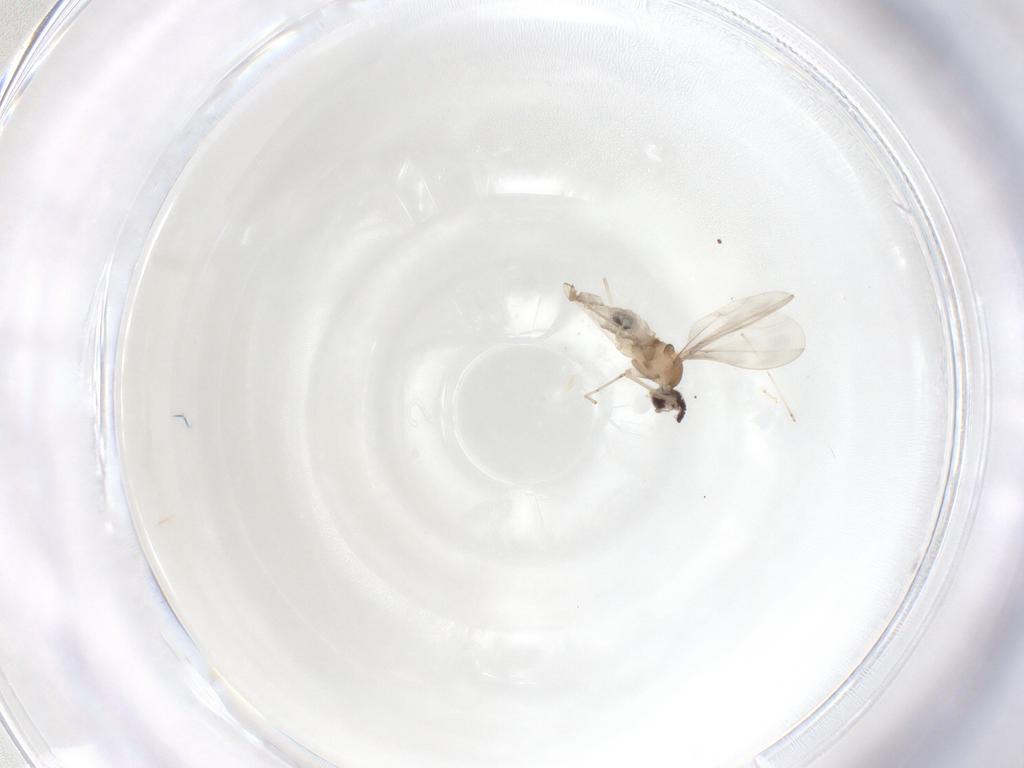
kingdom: Animalia
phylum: Arthropoda
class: Insecta
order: Diptera
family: Cecidomyiidae
